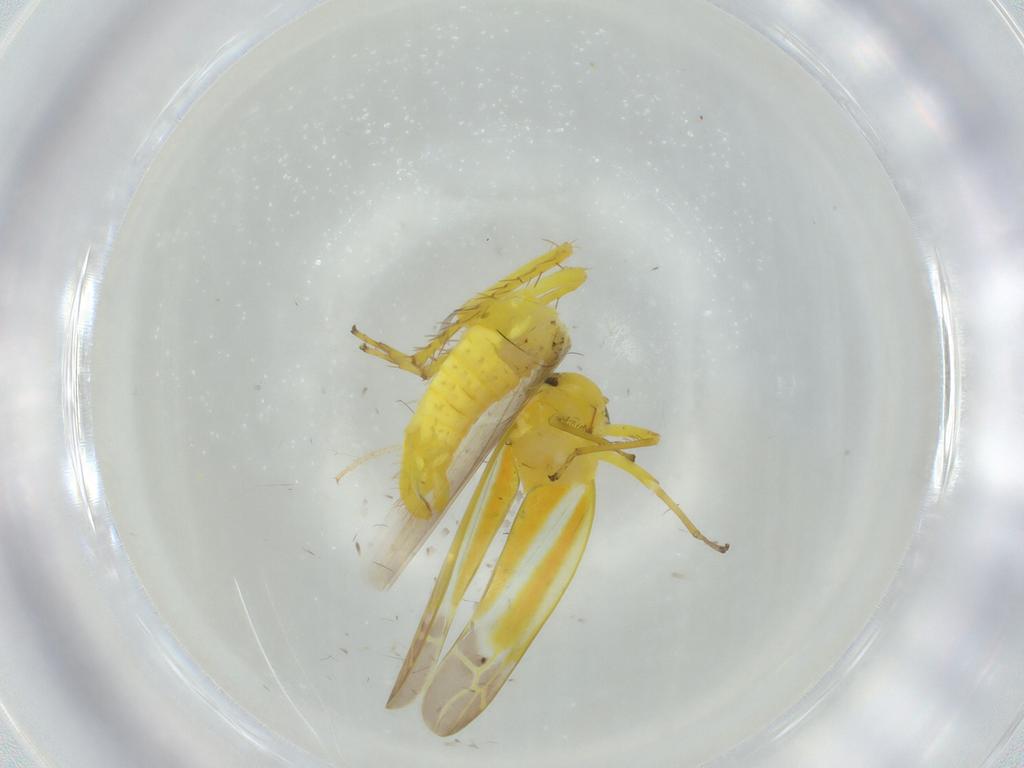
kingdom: Animalia
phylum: Arthropoda
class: Insecta
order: Hemiptera
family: Cicadellidae
